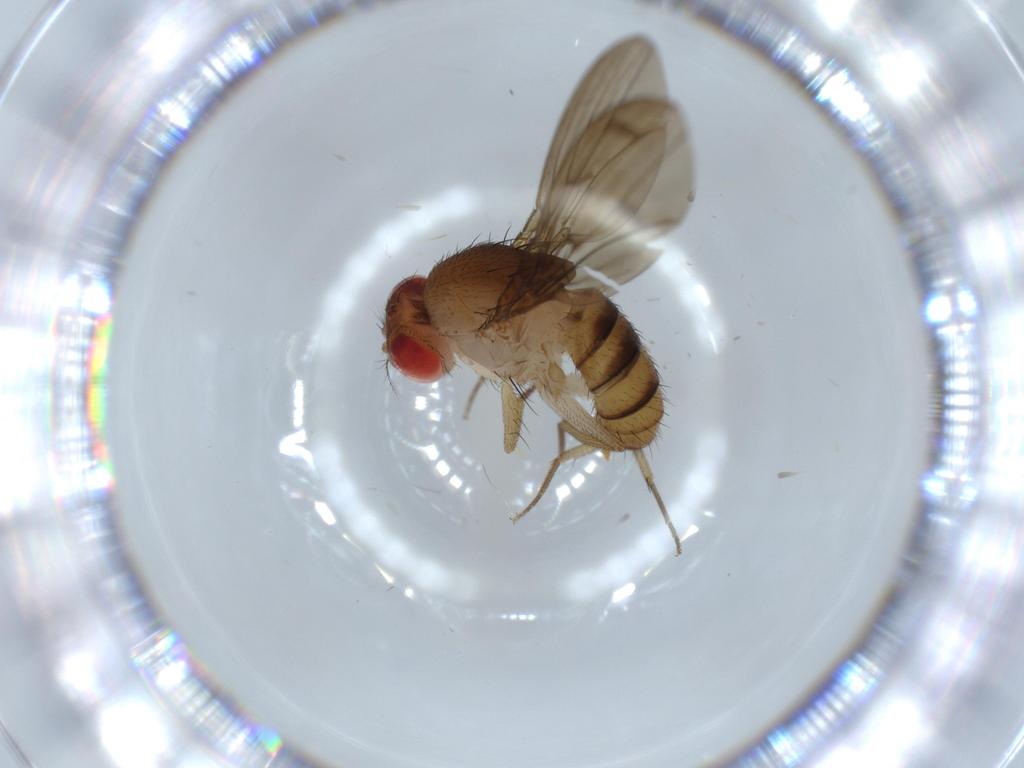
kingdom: Animalia
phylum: Arthropoda
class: Insecta
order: Diptera
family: Drosophilidae
